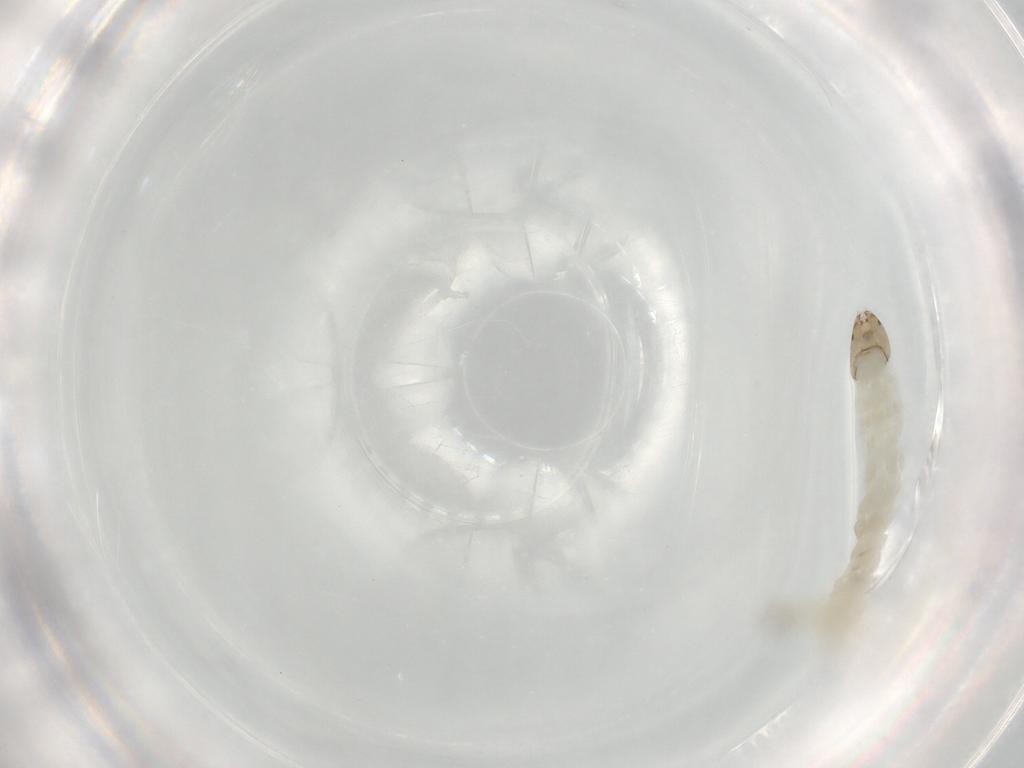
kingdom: Animalia
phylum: Arthropoda
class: Insecta
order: Diptera
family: Chironomidae
